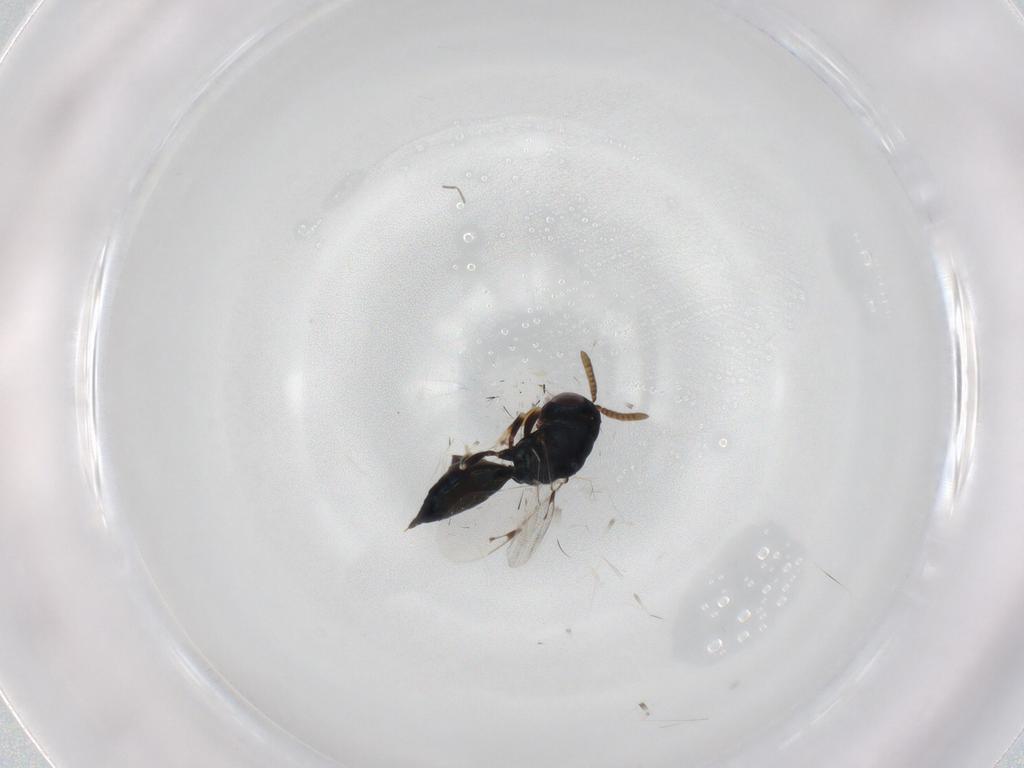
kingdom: Animalia
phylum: Arthropoda
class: Insecta
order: Hymenoptera
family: Pteromalidae
